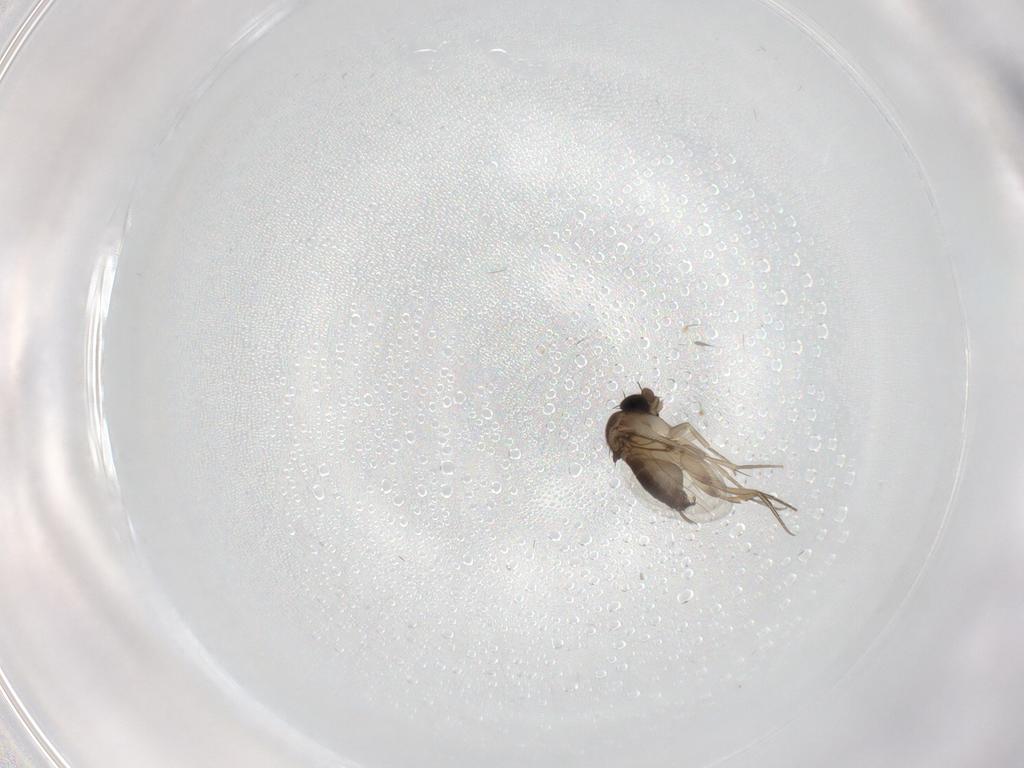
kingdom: Animalia
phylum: Arthropoda
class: Insecta
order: Diptera
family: Phoridae
